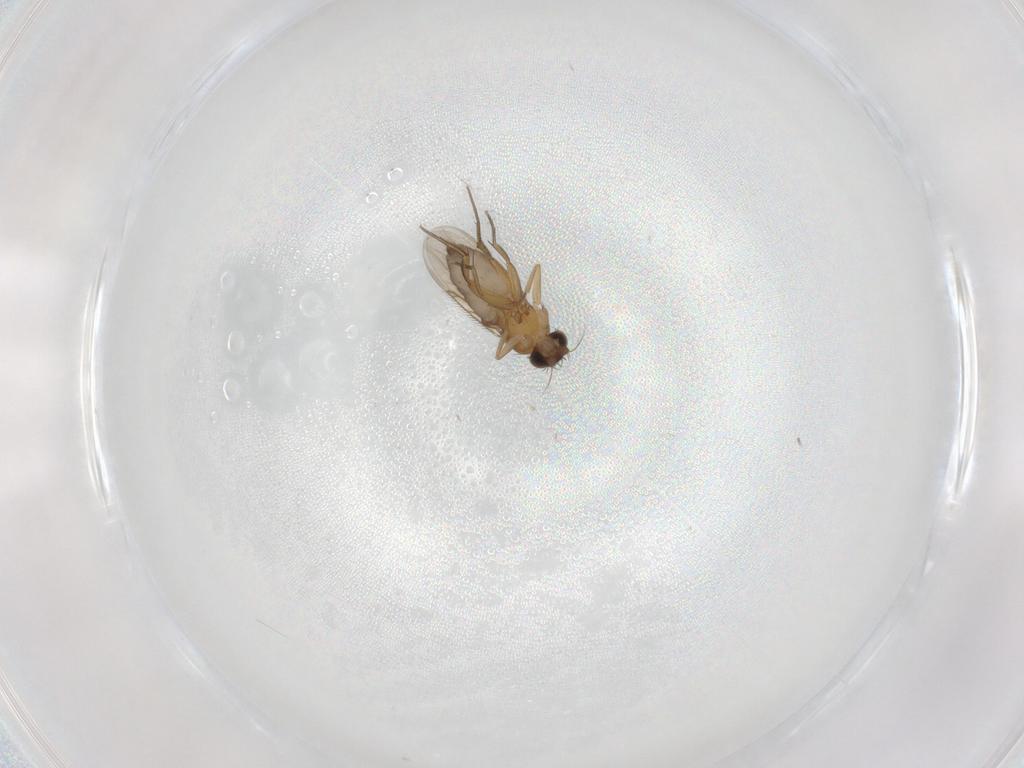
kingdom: Animalia
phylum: Arthropoda
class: Insecta
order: Diptera
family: Phoridae
